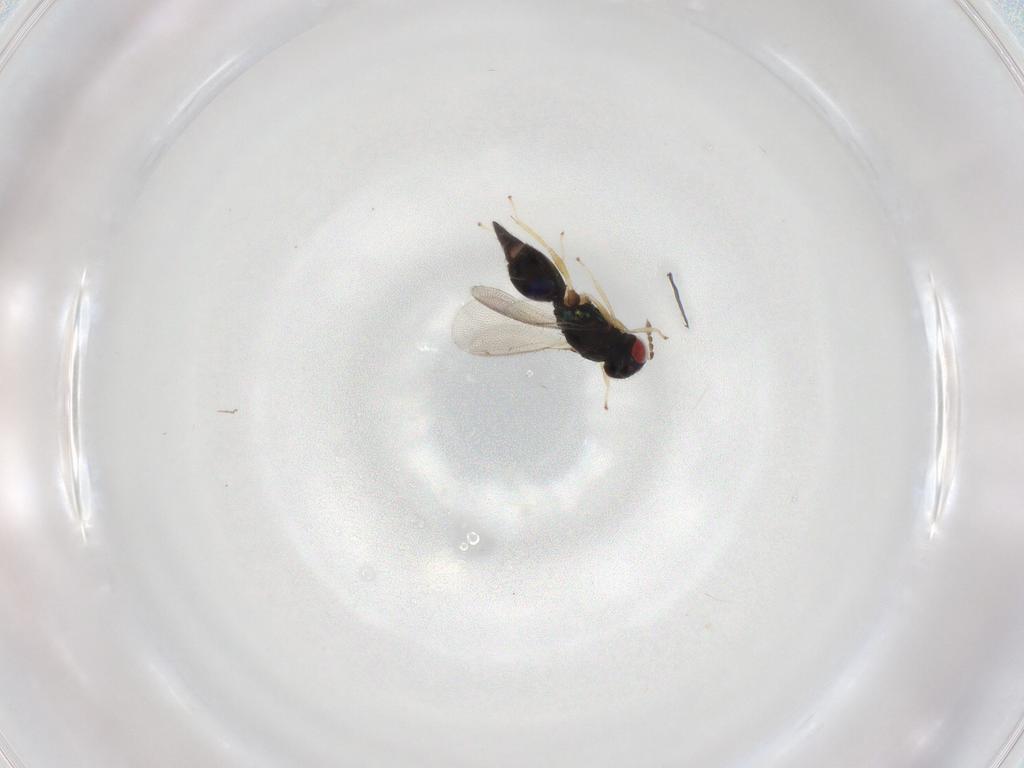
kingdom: Animalia
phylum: Arthropoda
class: Insecta
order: Hymenoptera
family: Eulophidae
